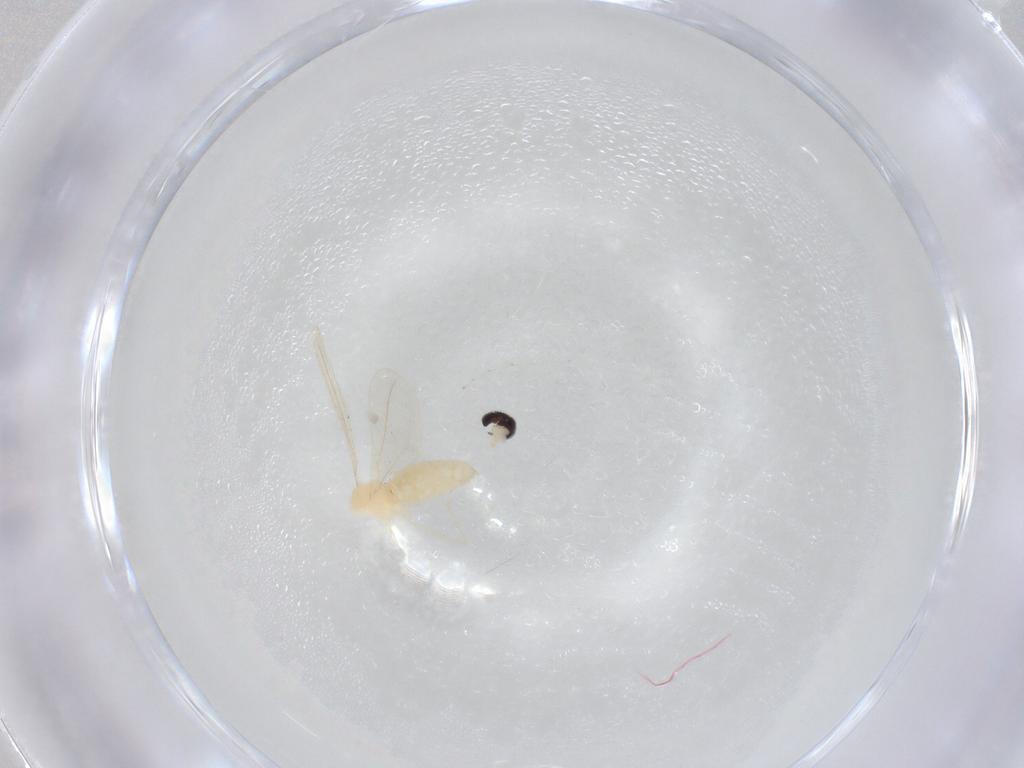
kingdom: Animalia
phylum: Arthropoda
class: Insecta
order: Diptera
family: Cecidomyiidae
